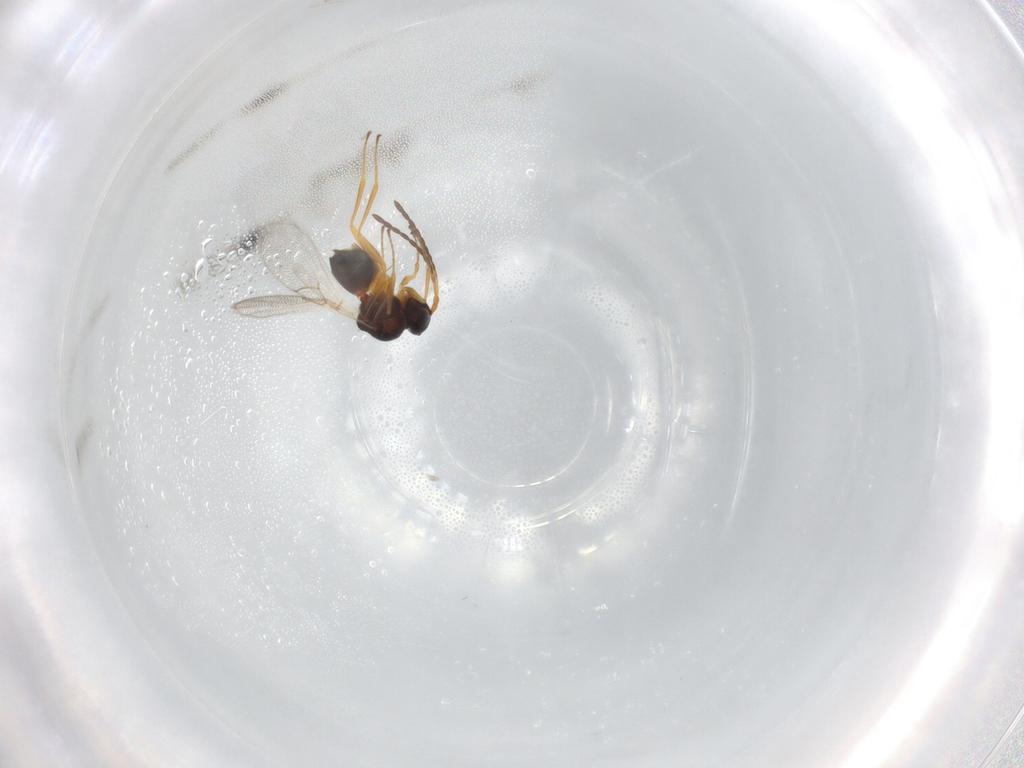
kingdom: Animalia
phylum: Arthropoda
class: Insecta
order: Hymenoptera
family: Figitidae
